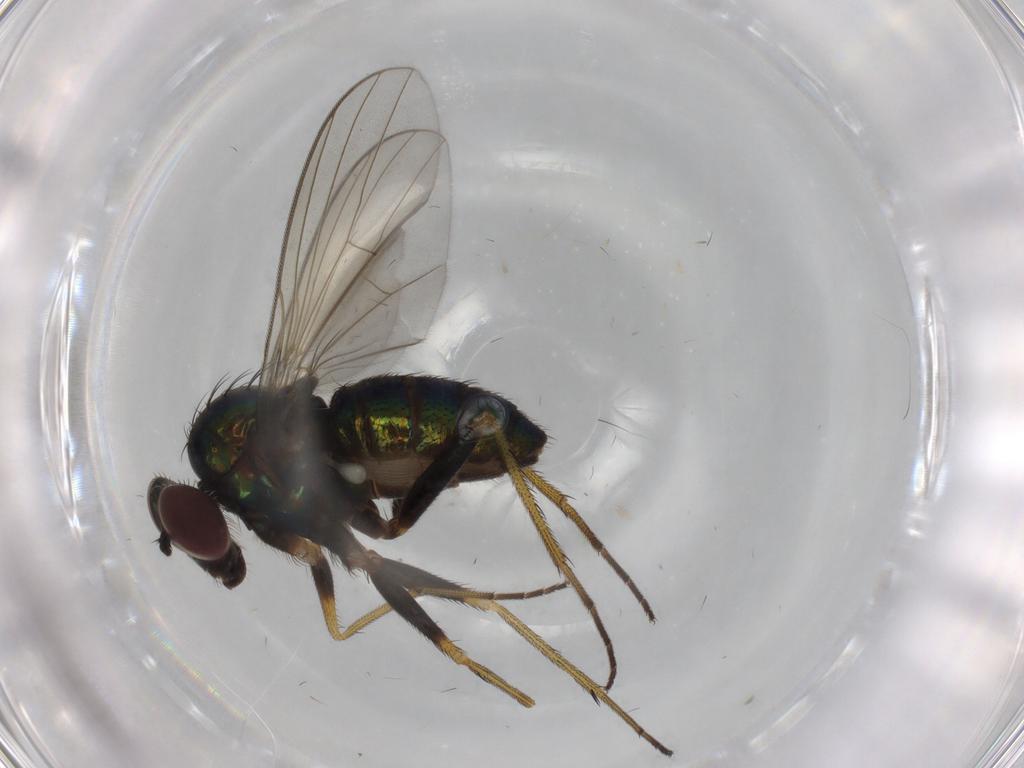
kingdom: Animalia
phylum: Arthropoda
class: Insecta
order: Diptera
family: Dolichopodidae
